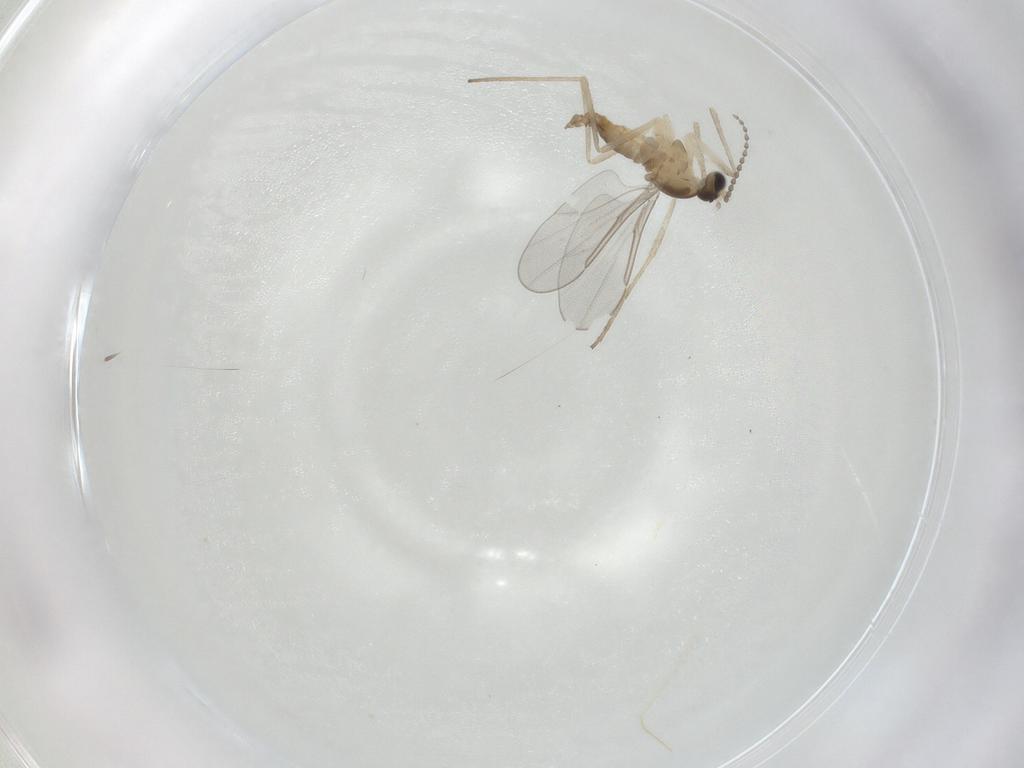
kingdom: Animalia
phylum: Arthropoda
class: Insecta
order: Diptera
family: Cecidomyiidae
